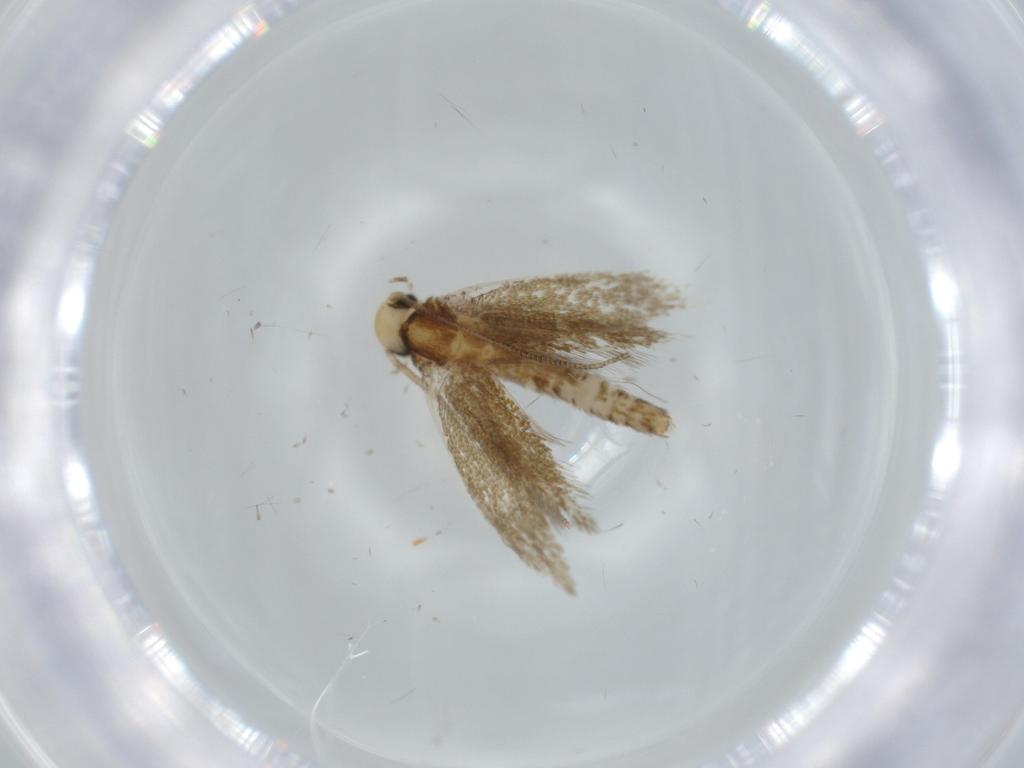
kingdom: Animalia
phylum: Arthropoda
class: Insecta
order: Lepidoptera
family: Tineidae
